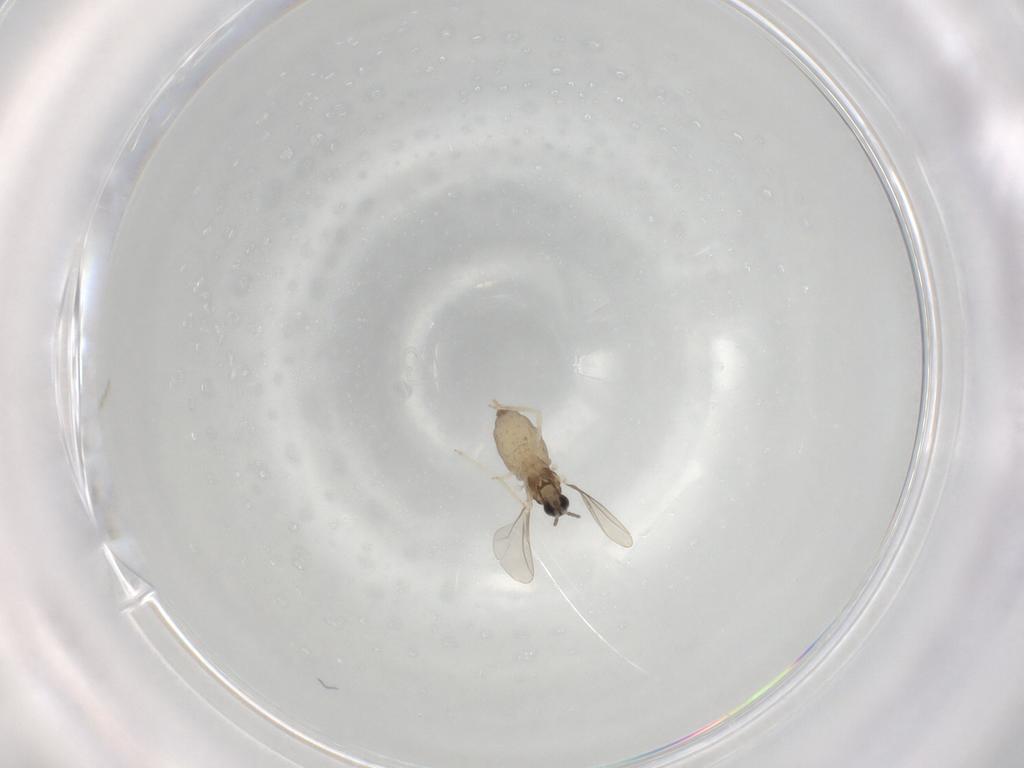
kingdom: Animalia
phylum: Arthropoda
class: Insecta
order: Diptera
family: Cecidomyiidae
